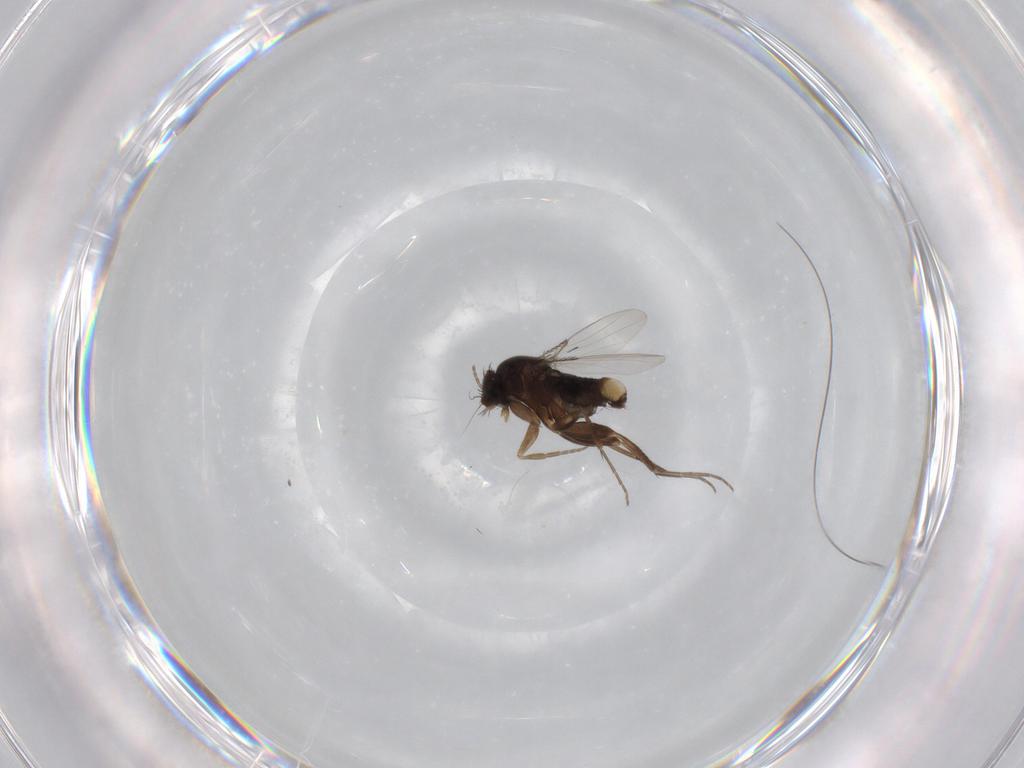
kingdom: Animalia
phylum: Arthropoda
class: Insecta
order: Diptera
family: Phoridae
